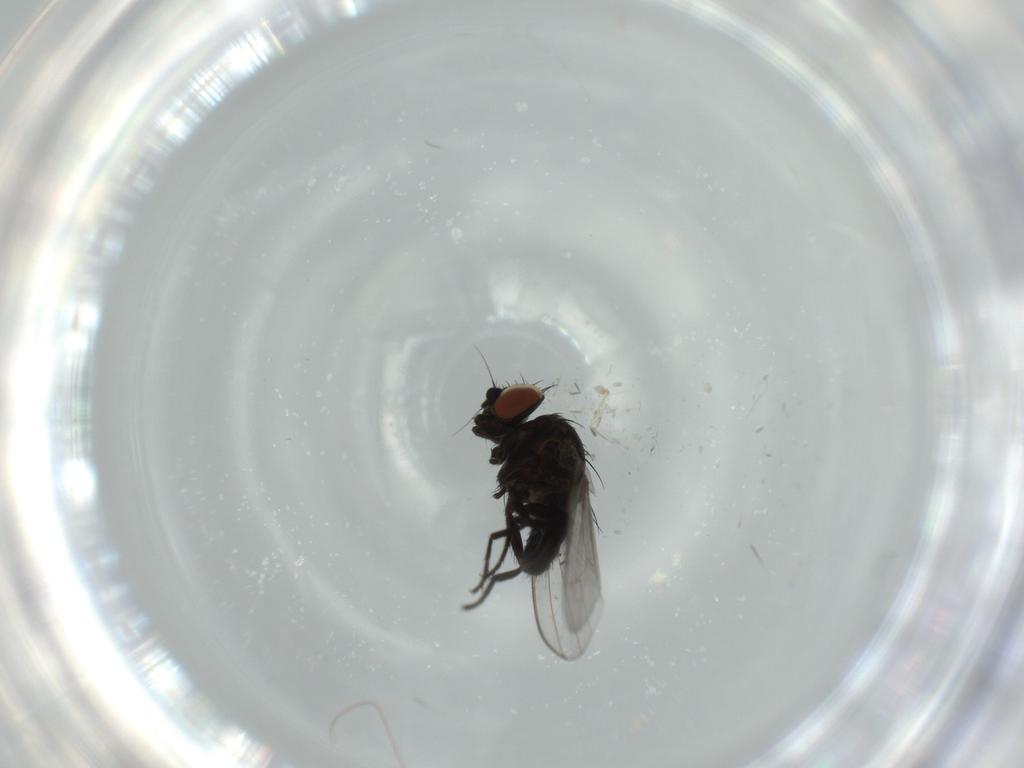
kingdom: Animalia
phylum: Arthropoda
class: Insecta
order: Diptera
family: Milichiidae
